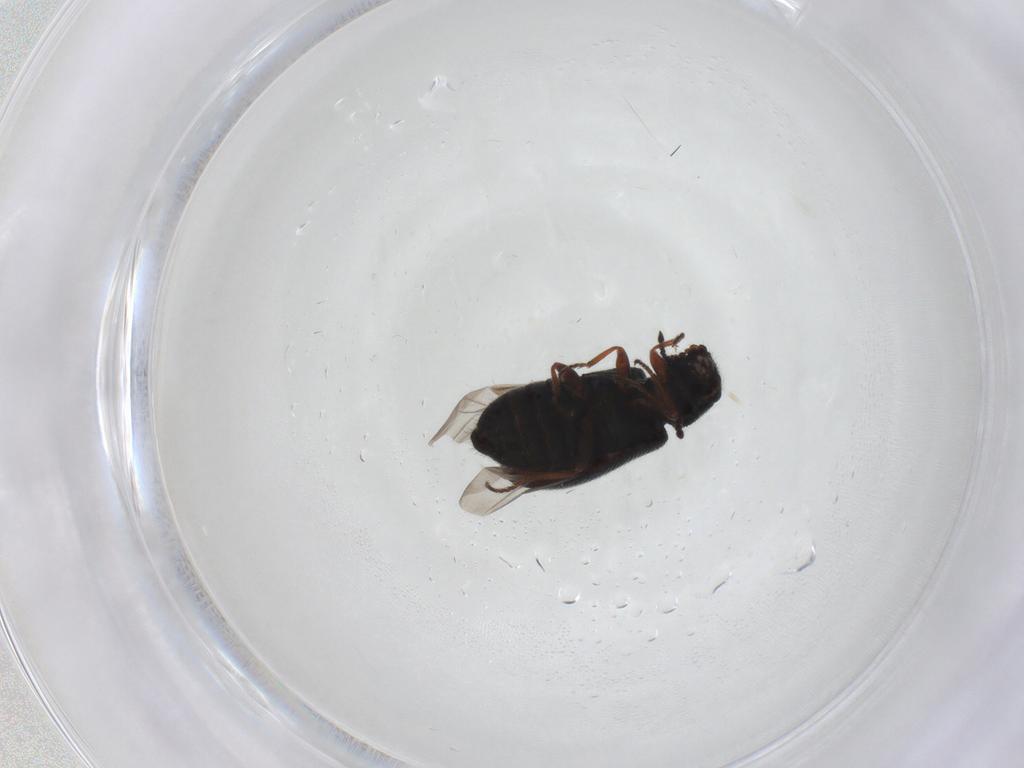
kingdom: Animalia
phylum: Arthropoda
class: Insecta
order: Coleoptera
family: Melyridae
